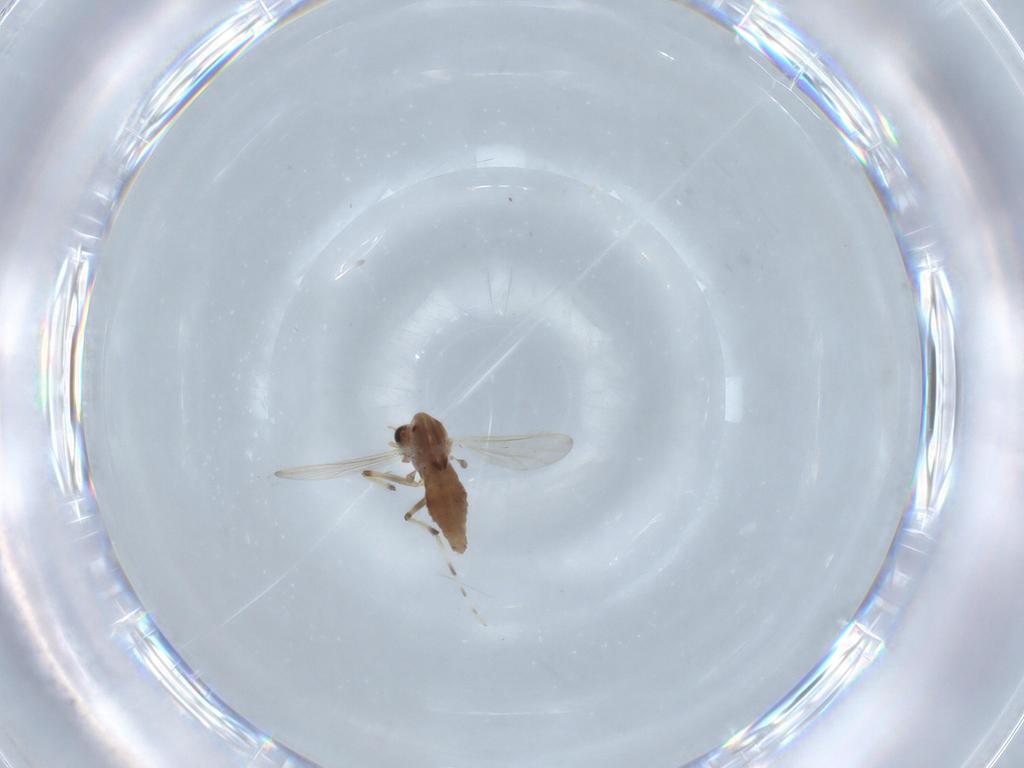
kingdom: Animalia
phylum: Arthropoda
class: Insecta
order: Diptera
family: Chironomidae
